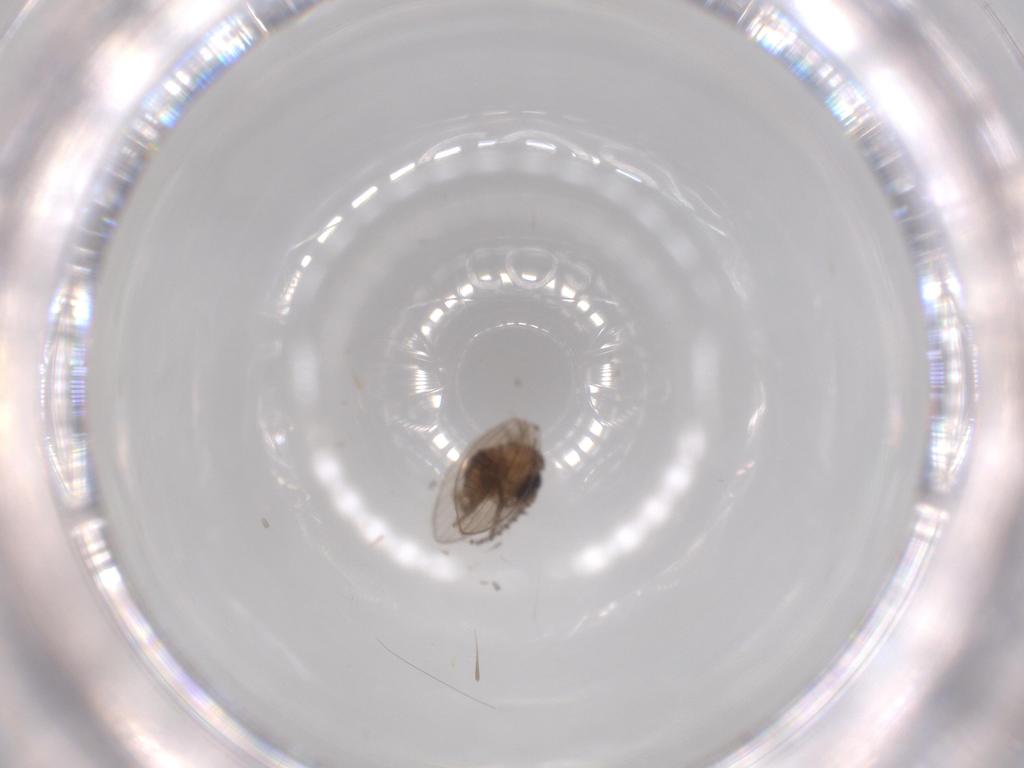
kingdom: Animalia
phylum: Arthropoda
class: Insecta
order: Diptera
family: Psychodidae
